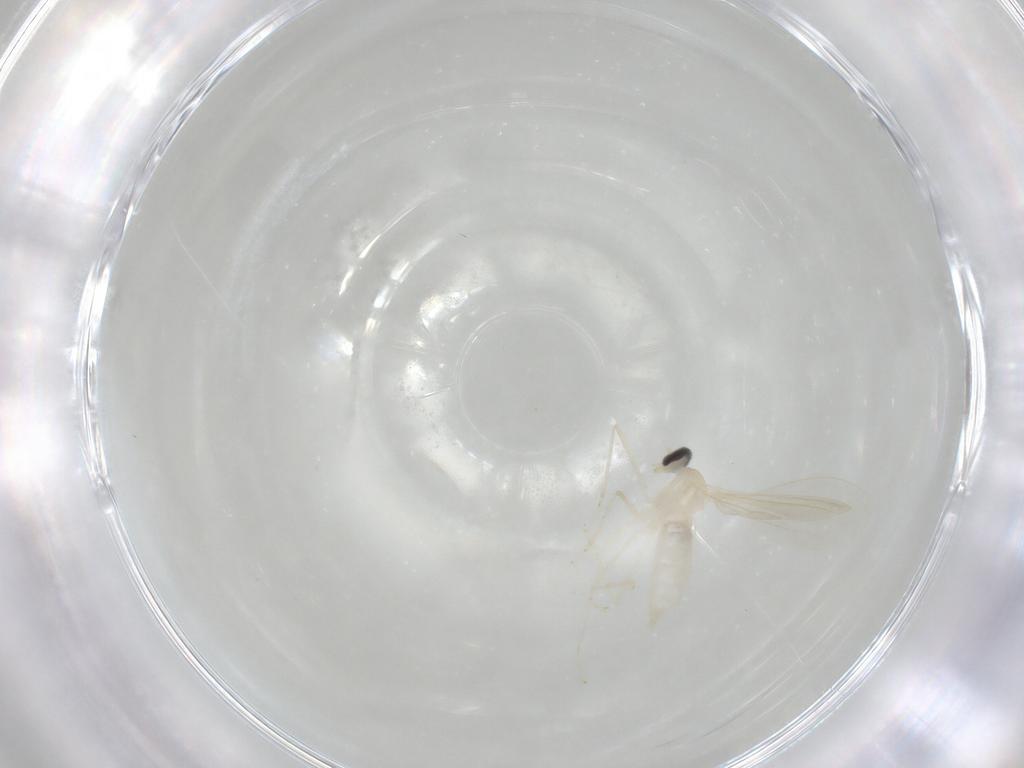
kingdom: Animalia
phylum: Arthropoda
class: Insecta
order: Diptera
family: Cecidomyiidae
